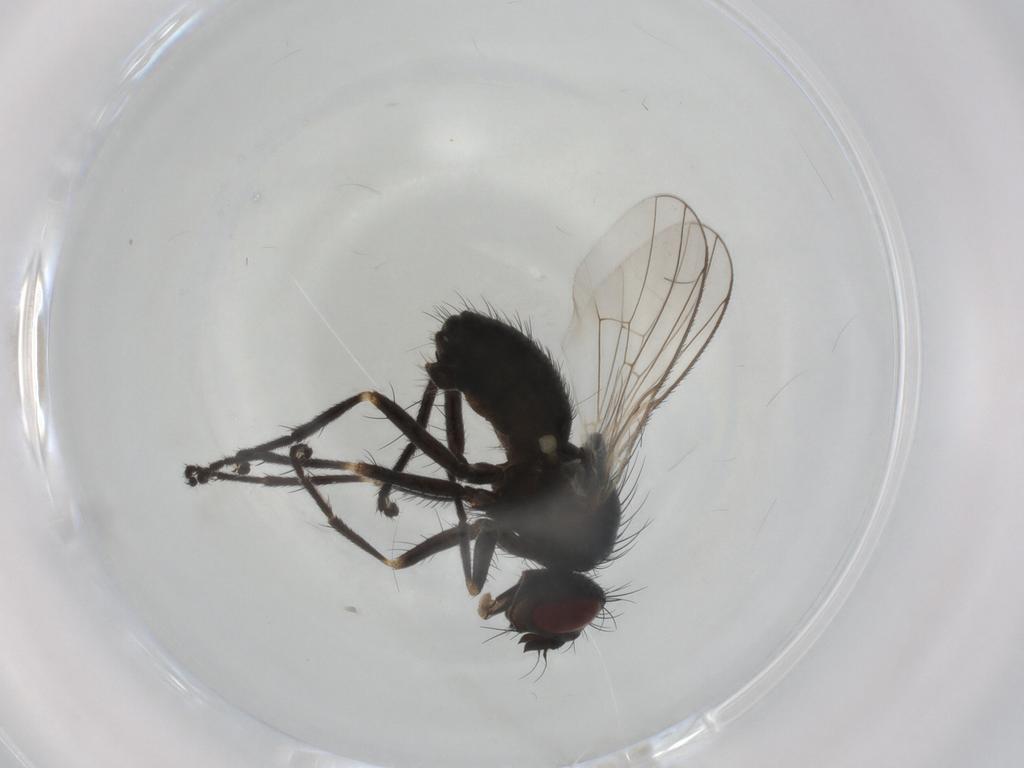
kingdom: Animalia
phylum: Arthropoda
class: Insecta
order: Diptera
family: Muscidae
